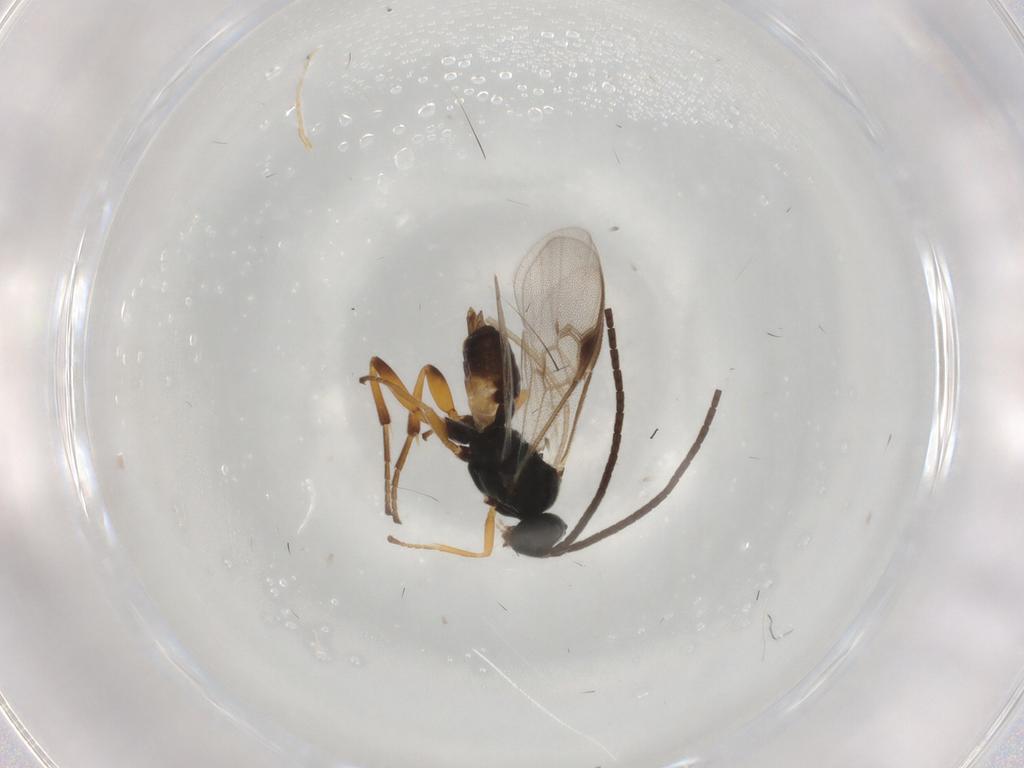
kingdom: Animalia
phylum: Arthropoda
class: Insecta
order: Hymenoptera
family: Braconidae
